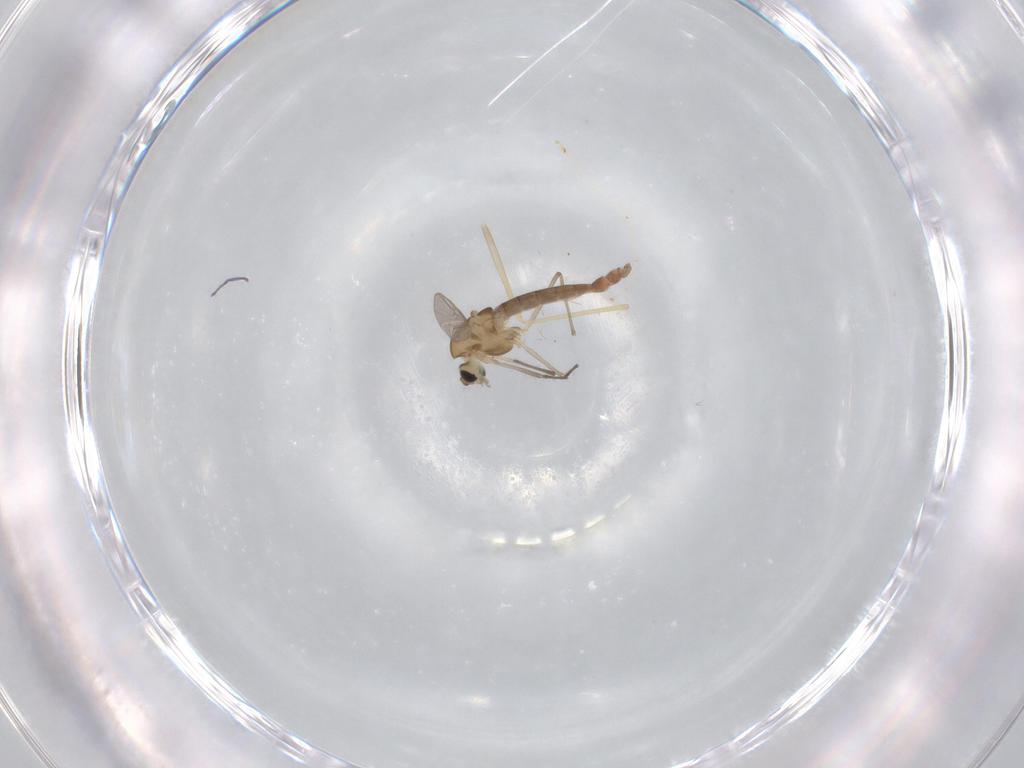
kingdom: Animalia
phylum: Arthropoda
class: Insecta
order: Diptera
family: Chironomidae
